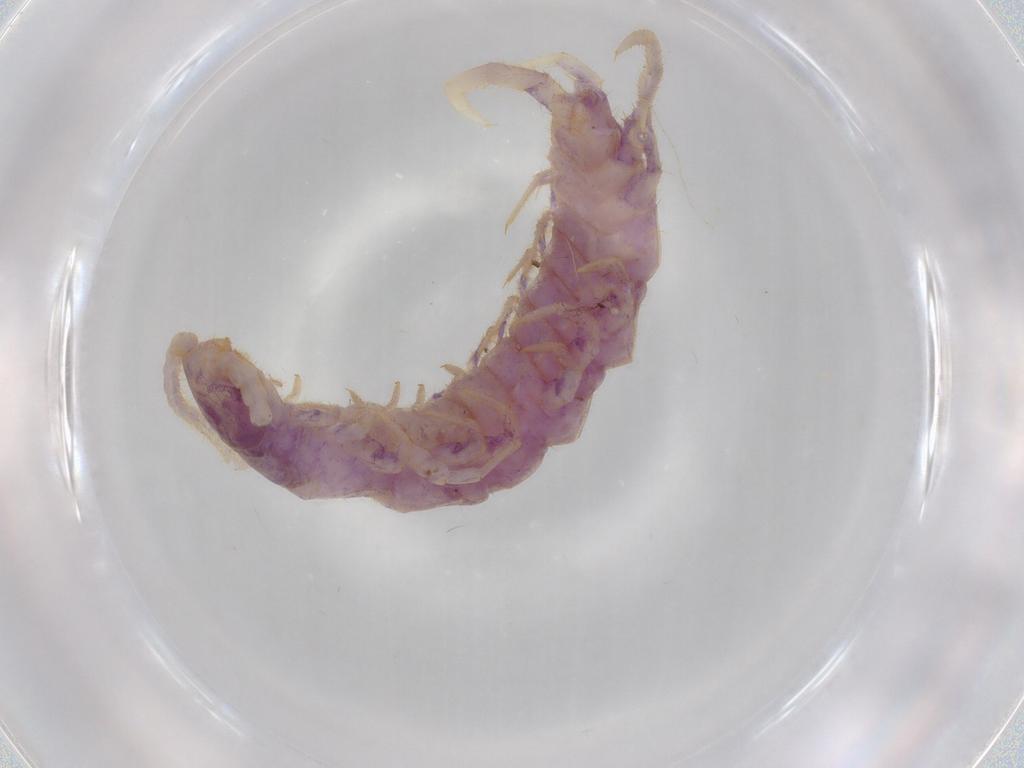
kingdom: Animalia
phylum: Arthropoda
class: Chilopoda
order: Lithobiomorpha
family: Lithobiidae
